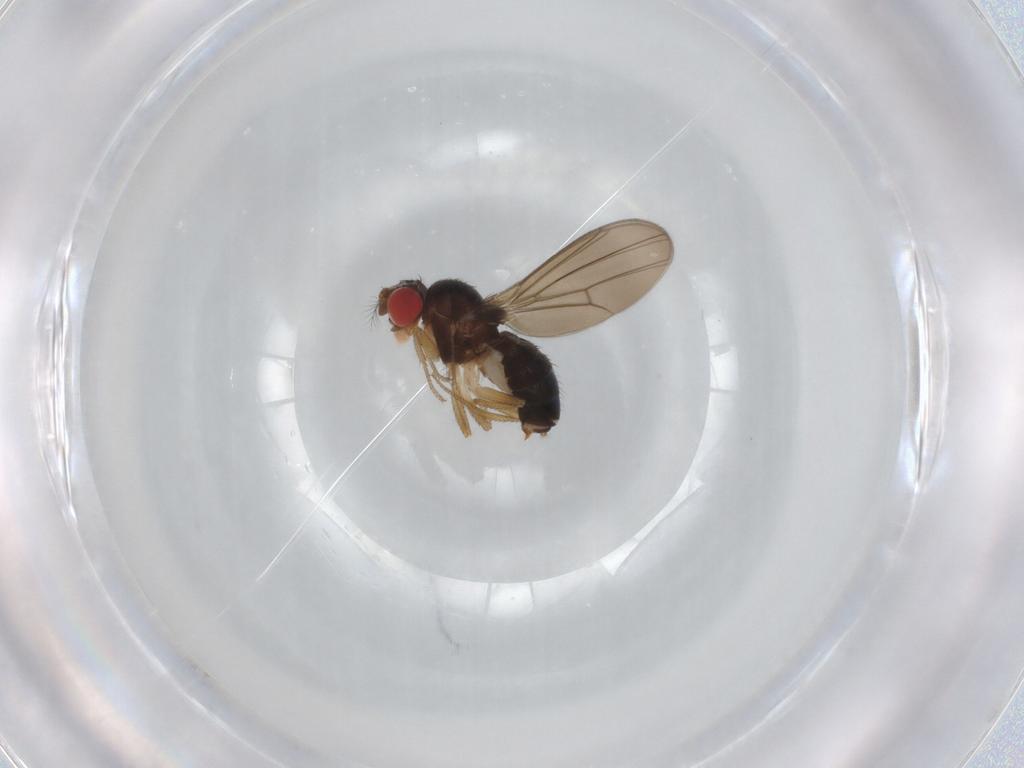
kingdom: Animalia
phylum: Arthropoda
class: Insecta
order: Diptera
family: Drosophilidae
